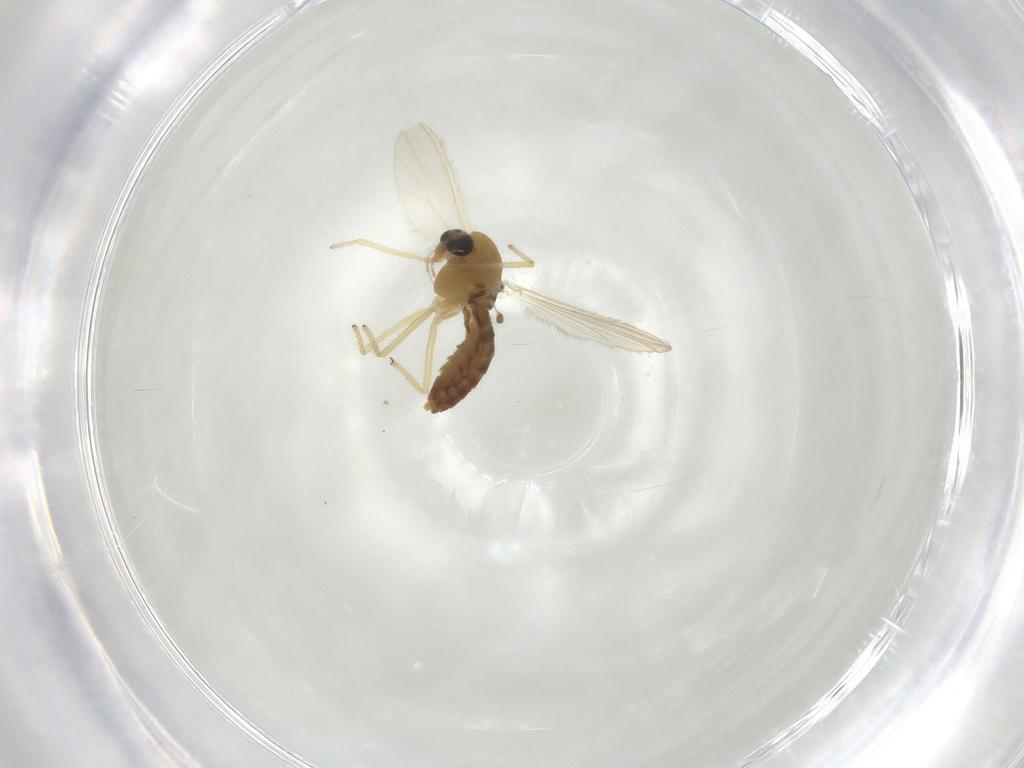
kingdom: Animalia
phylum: Arthropoda
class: Insecta
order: Diptera
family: Chironomidae
